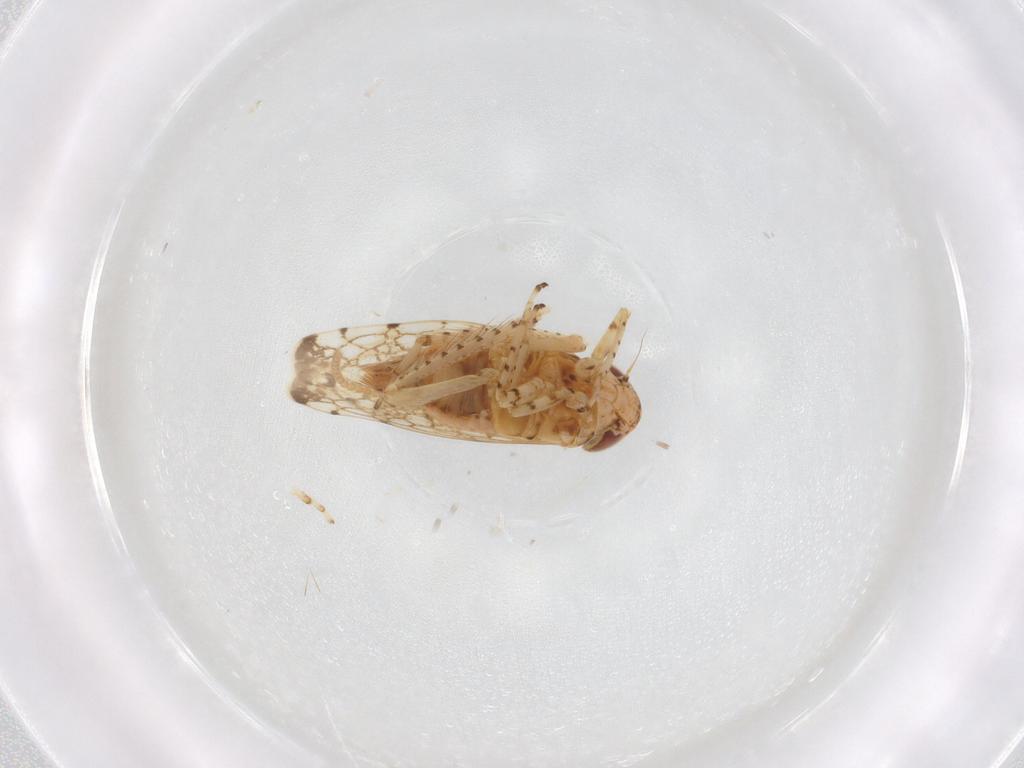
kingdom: Animalia
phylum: Arthropoda
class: Insecta
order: Hemiptera
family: Cicadellidae
